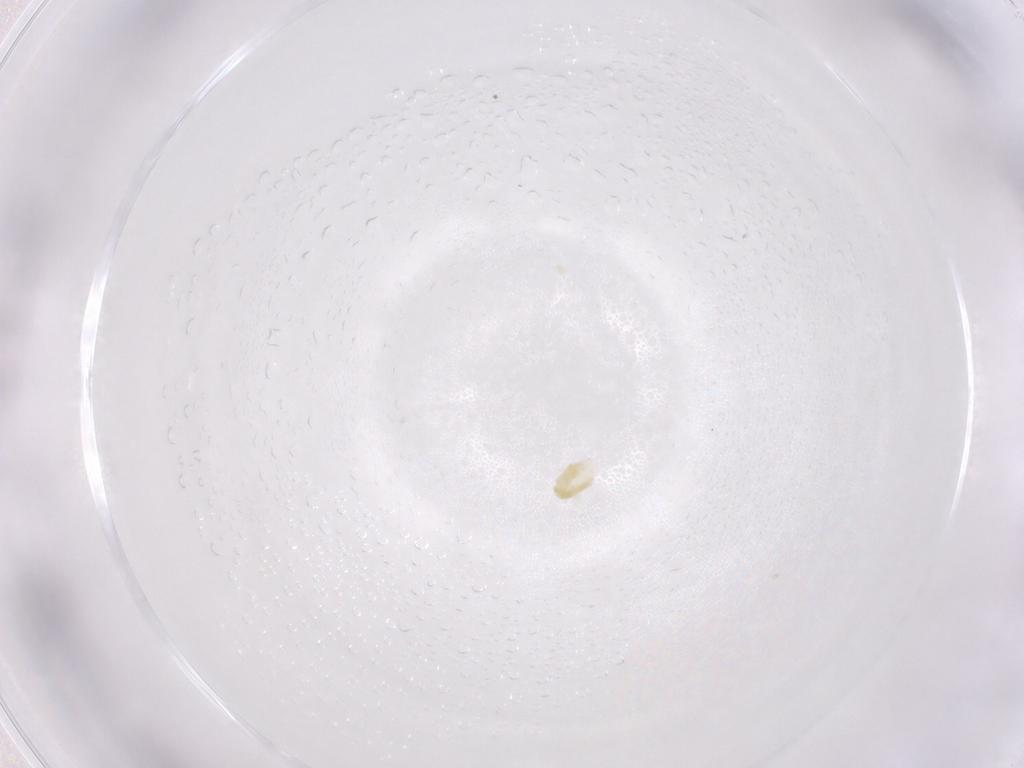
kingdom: Animalia
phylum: Arthropoda
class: Arachnida
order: Trombidiformes
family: Eupodidae
